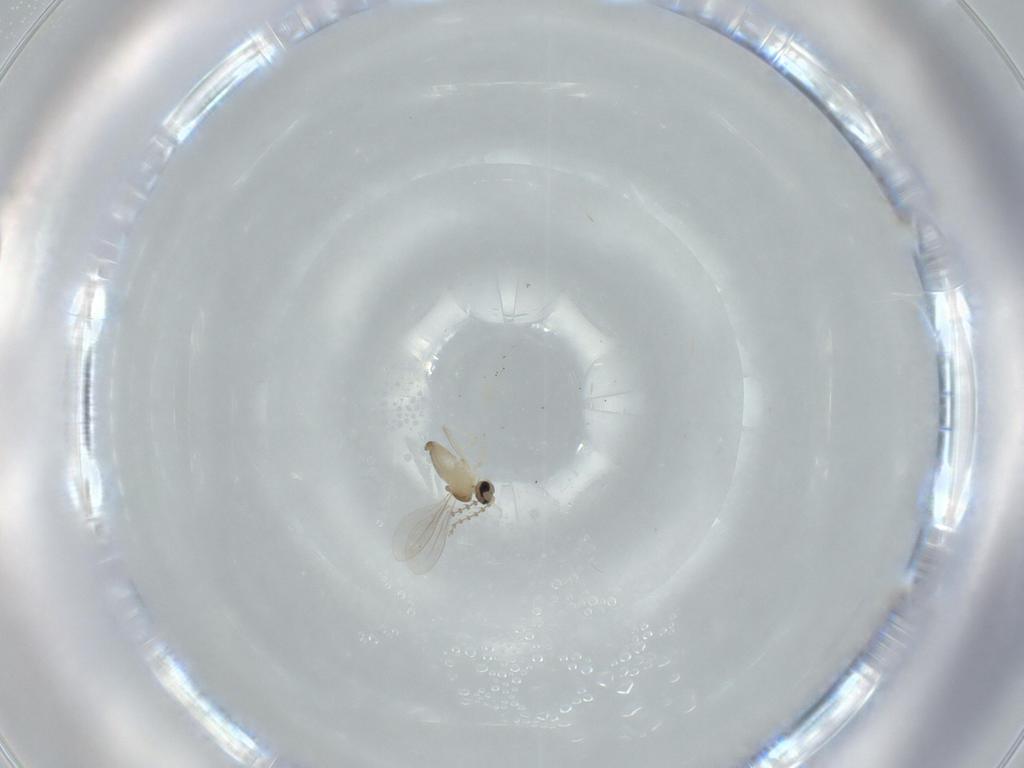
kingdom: Animalia
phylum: Arthropoda
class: Insecta
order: Diptera
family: Cecidomyiidae
